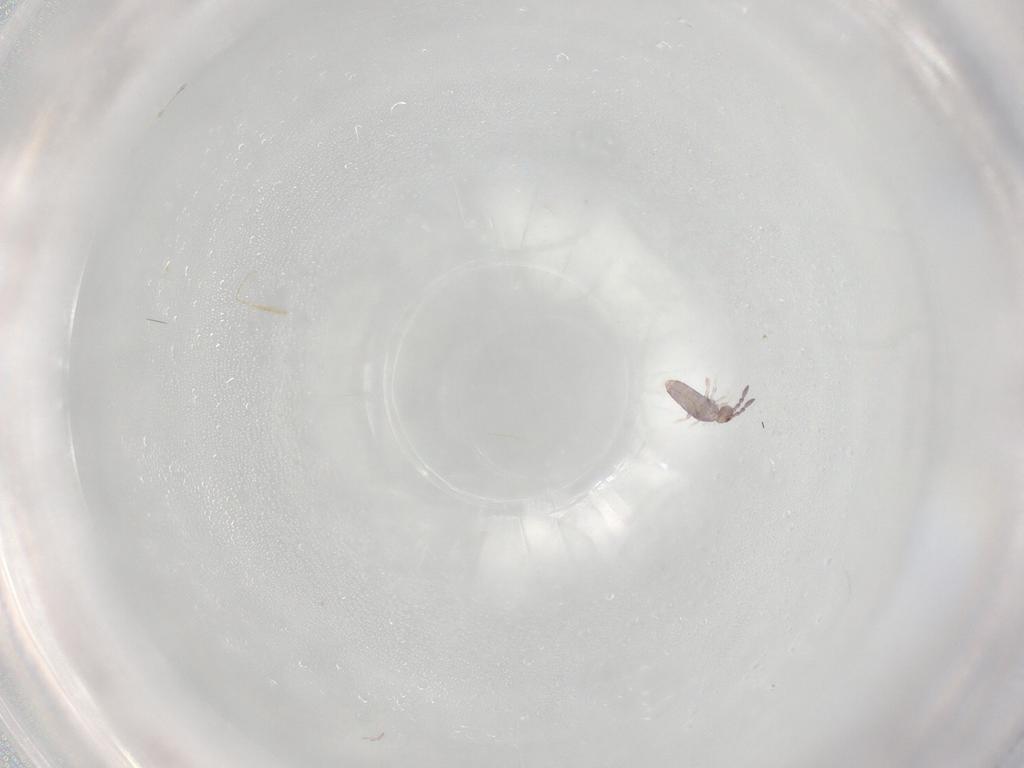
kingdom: Animalia
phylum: Arthropoda
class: Collembola
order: Entomobryomorpha
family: Entomobryidae
